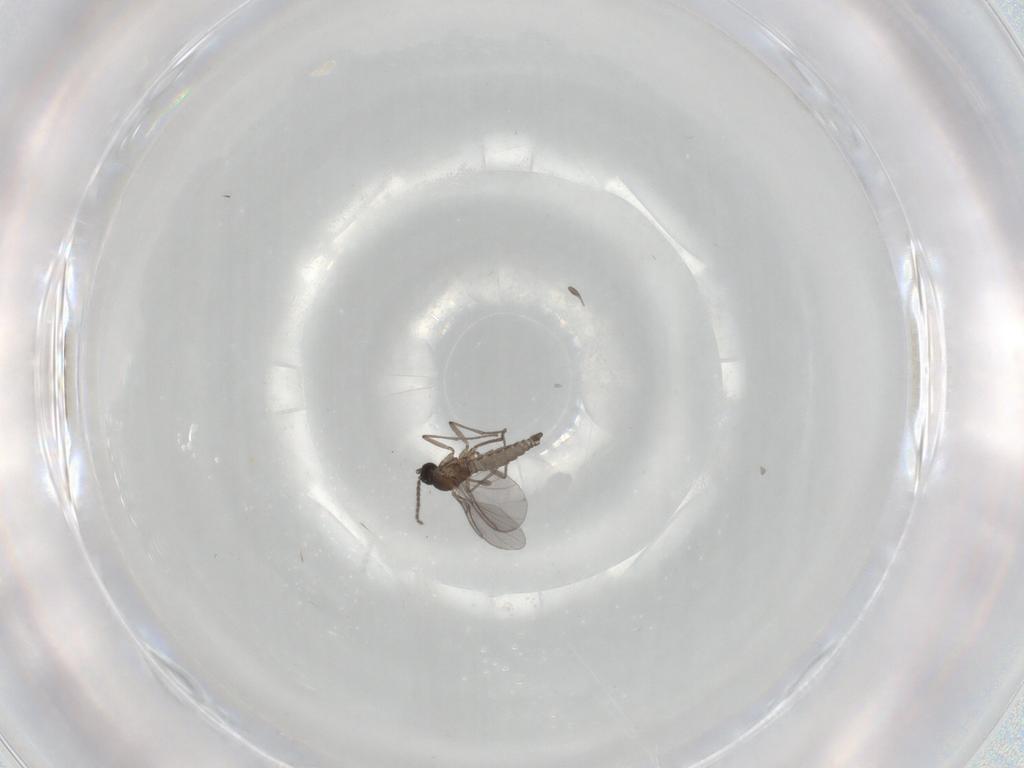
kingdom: Animalia
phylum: Arthropoda
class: Insecta
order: Diptera
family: Sciaridae
